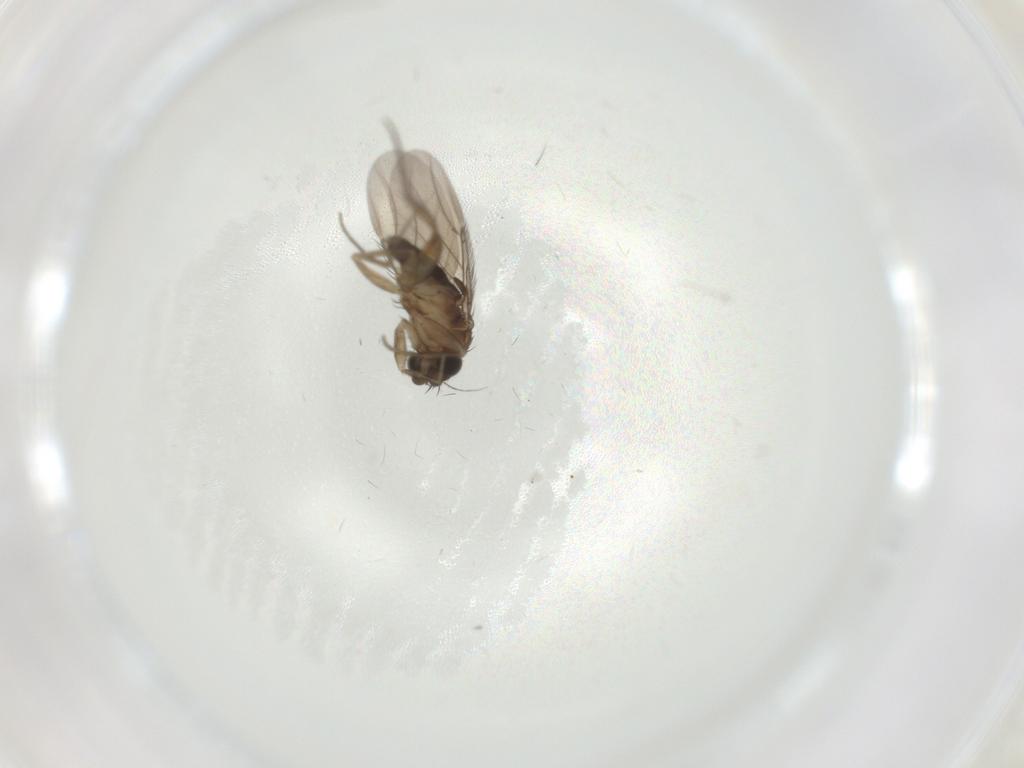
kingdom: Animalia
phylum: Arthropoda
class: Insecta
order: Diptera
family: Phoridae
